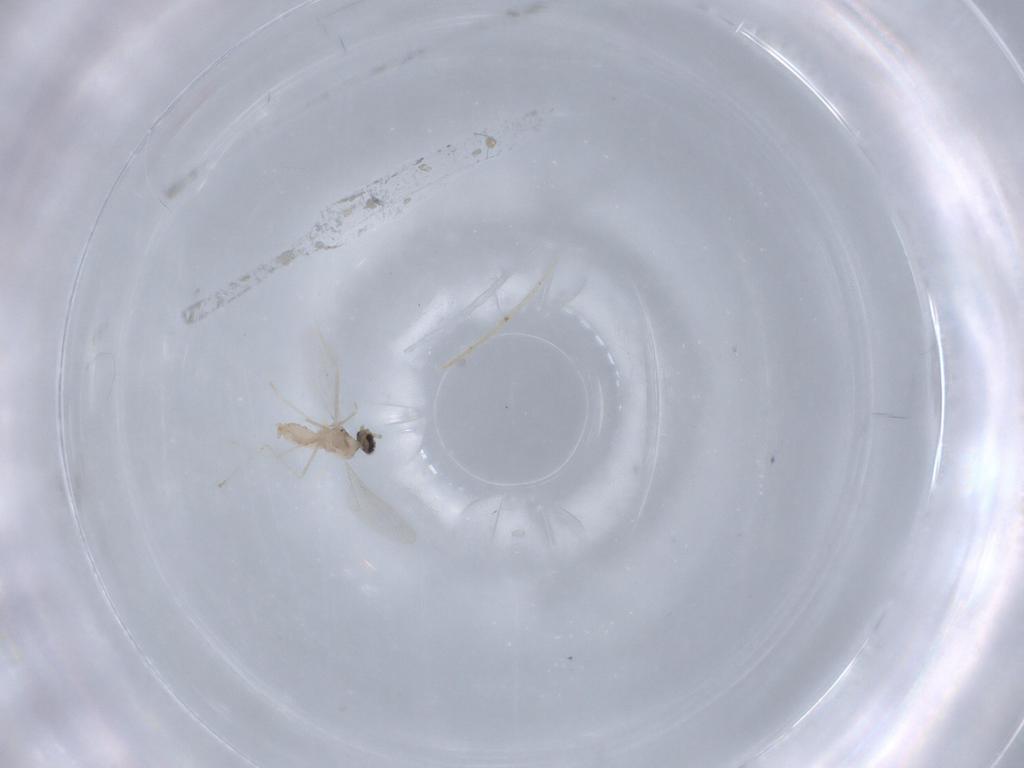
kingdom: Animalia
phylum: Arthropoda
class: Insecta
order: Diptera
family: Cecidomyiidae
